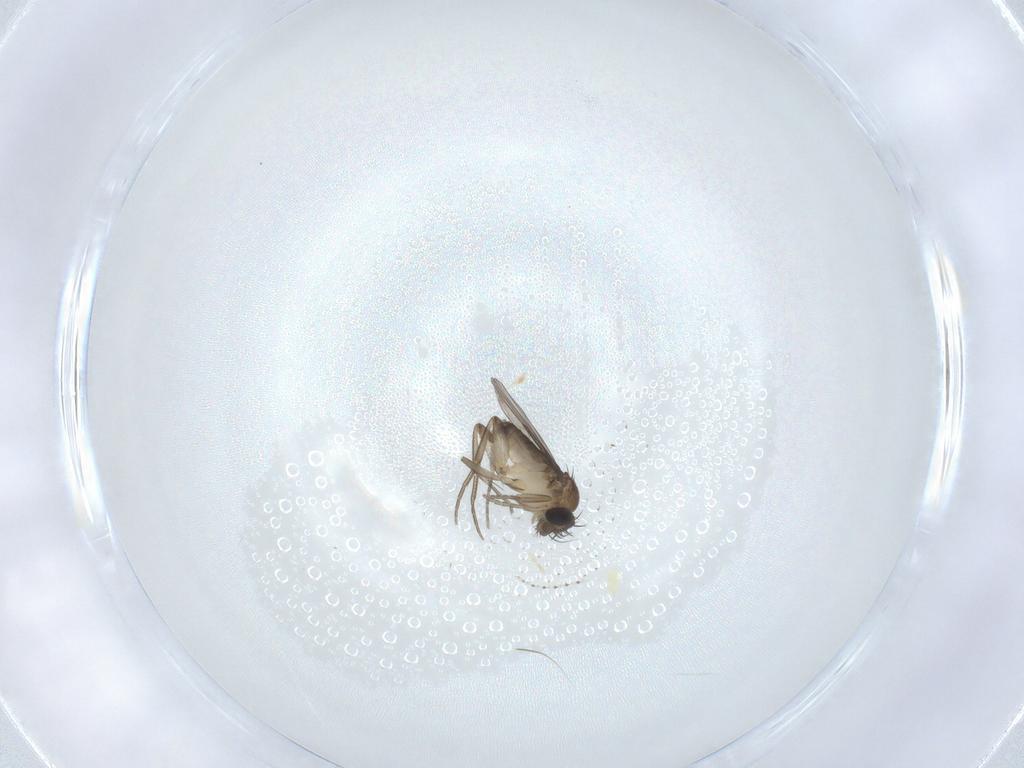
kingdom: Animalia
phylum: Arthropoda
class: Insecta
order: Diptera
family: Phoridae
